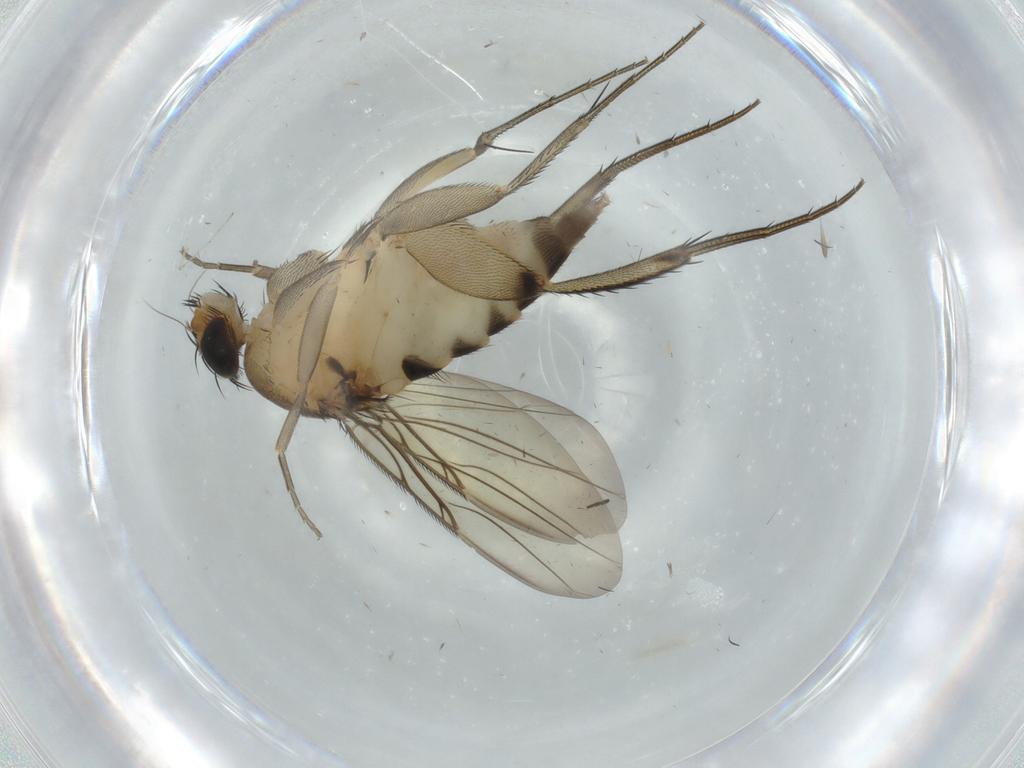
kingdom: Animalia
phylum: Arthropoda
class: Insecta
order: Diptera
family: Phoridae
